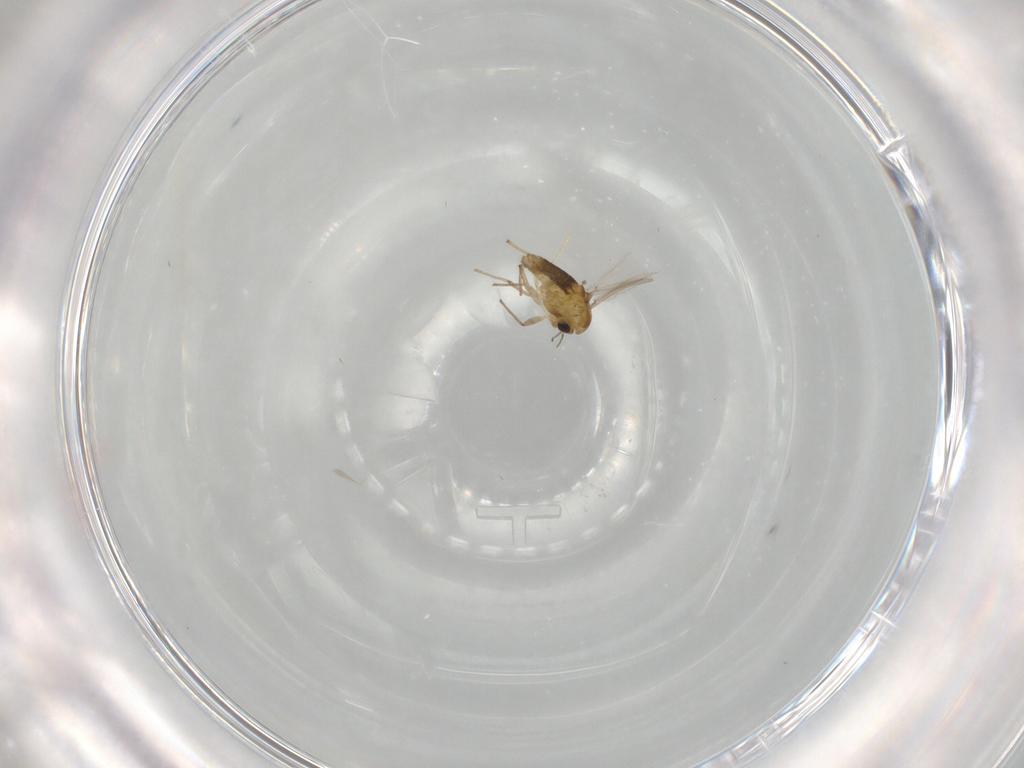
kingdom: Animalia
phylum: Arthropoda
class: Insecta
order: Diptera
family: Chironomidae
